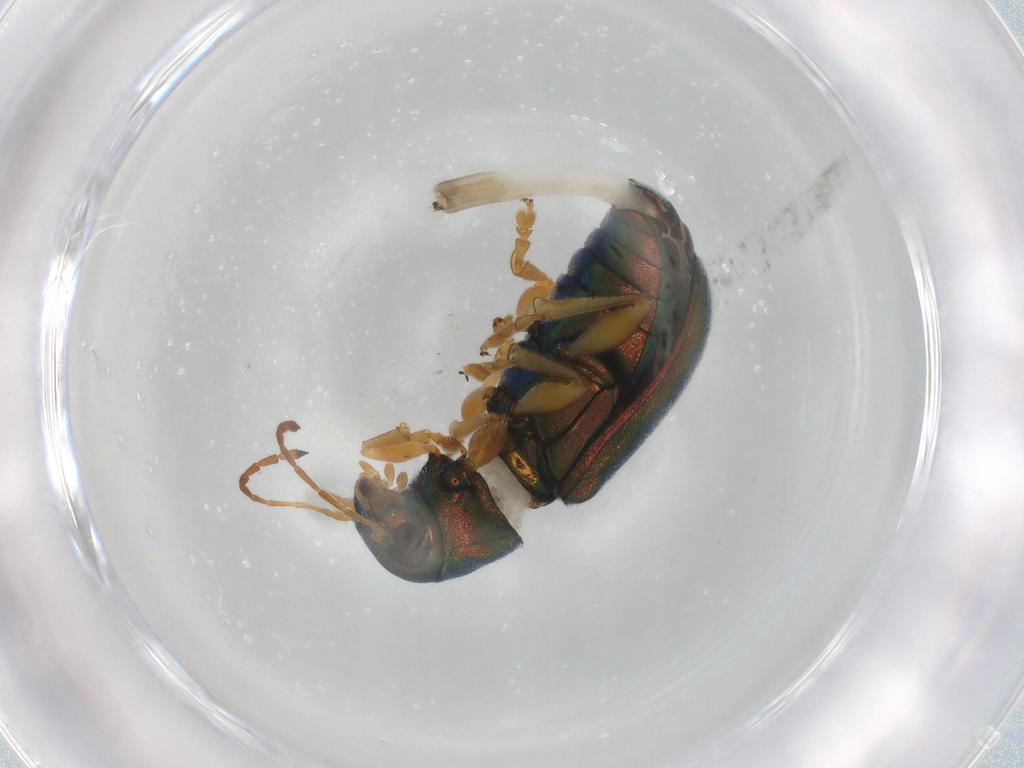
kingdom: Animalia
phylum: Arthropoda
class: Insecta
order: Coleoptera
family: Chrysomelidae
